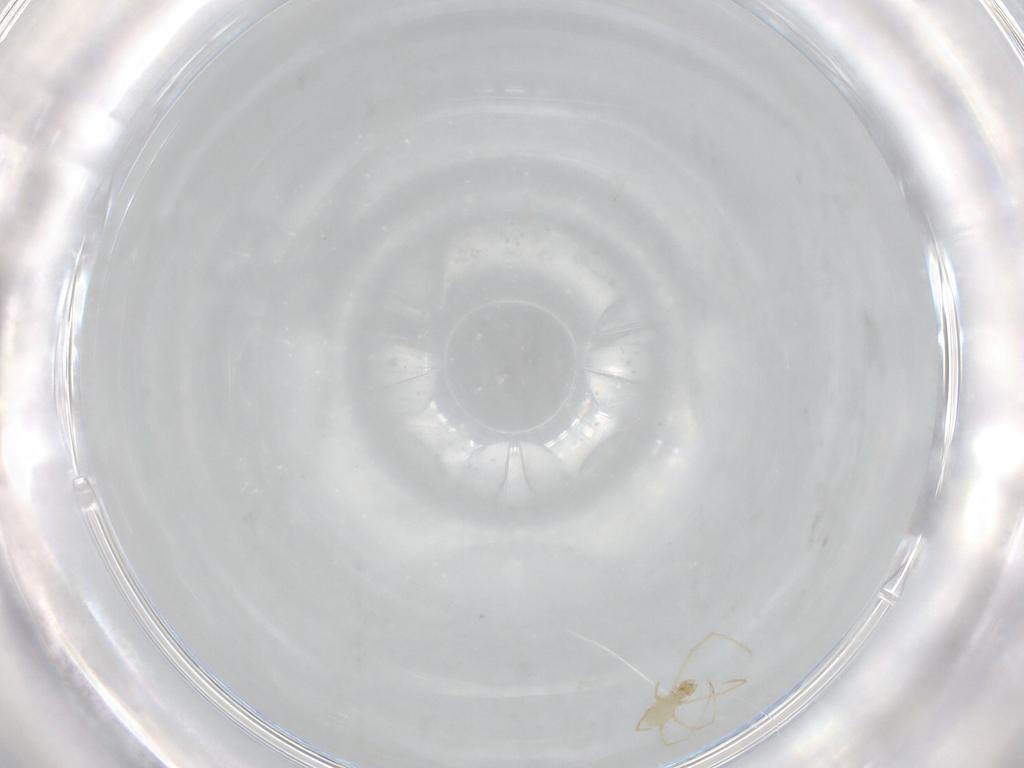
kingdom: Animalia
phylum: Arthropoda
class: Arachnida
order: Trombidiformes
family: Erythraeidae
